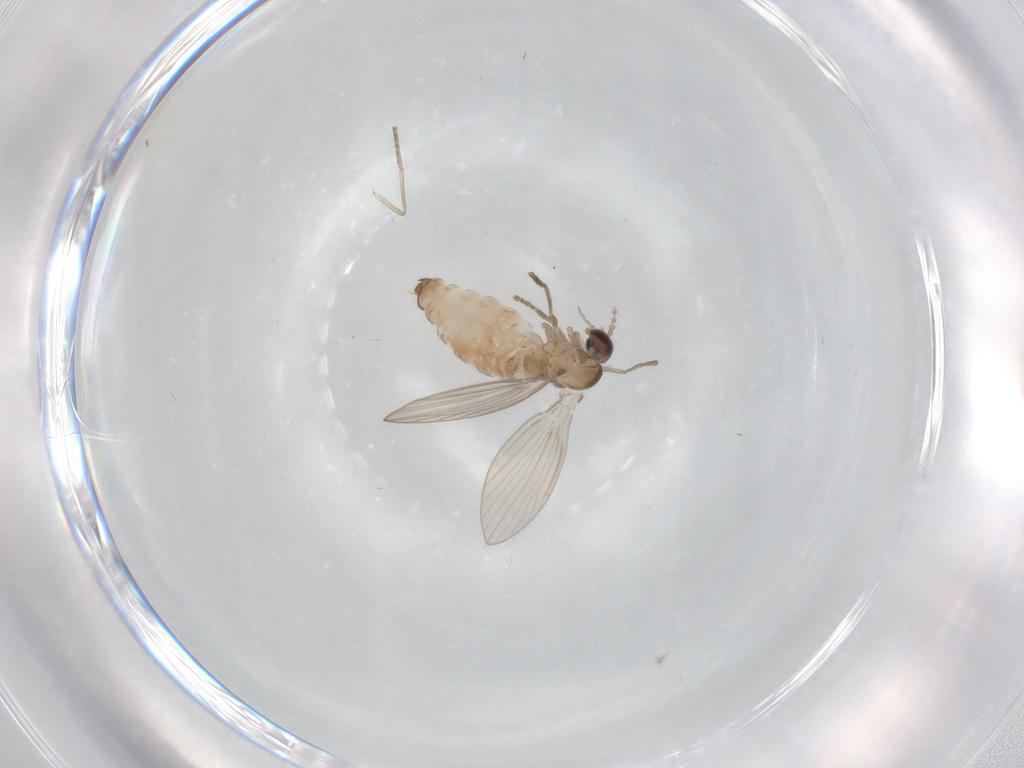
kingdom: Animalia
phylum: Arthropoda
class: Insecta
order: Diptera
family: Psychodidae
